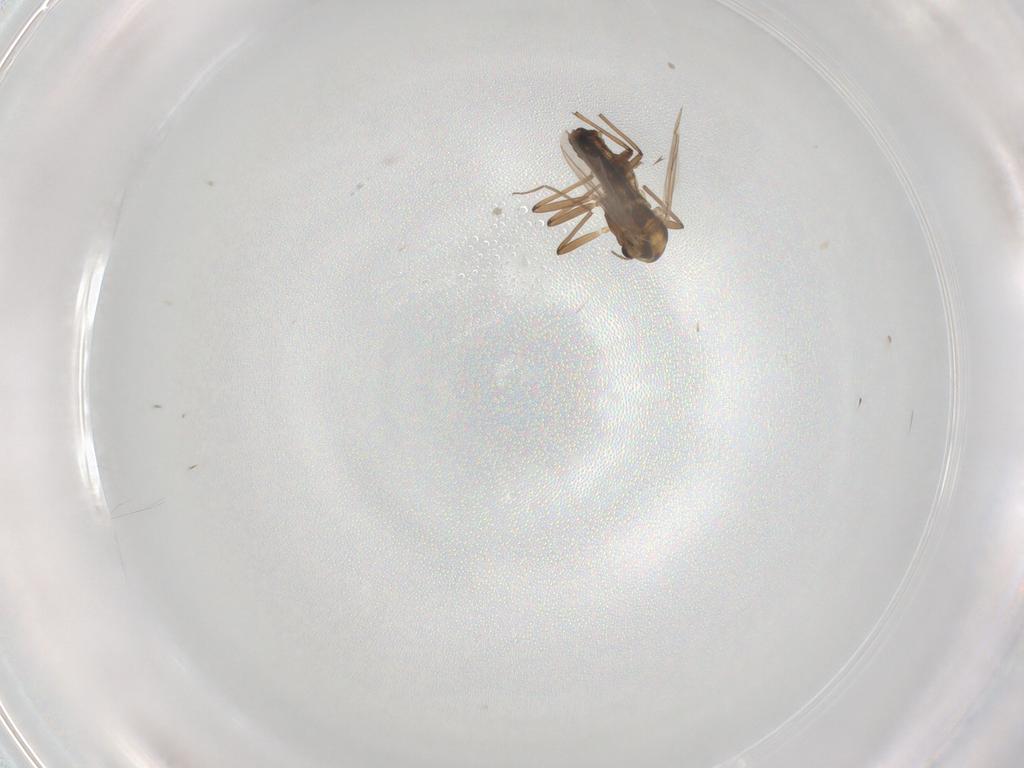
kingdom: Animalia
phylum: Arthropoda
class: Insecta
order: Diptera
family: Chironomidae
